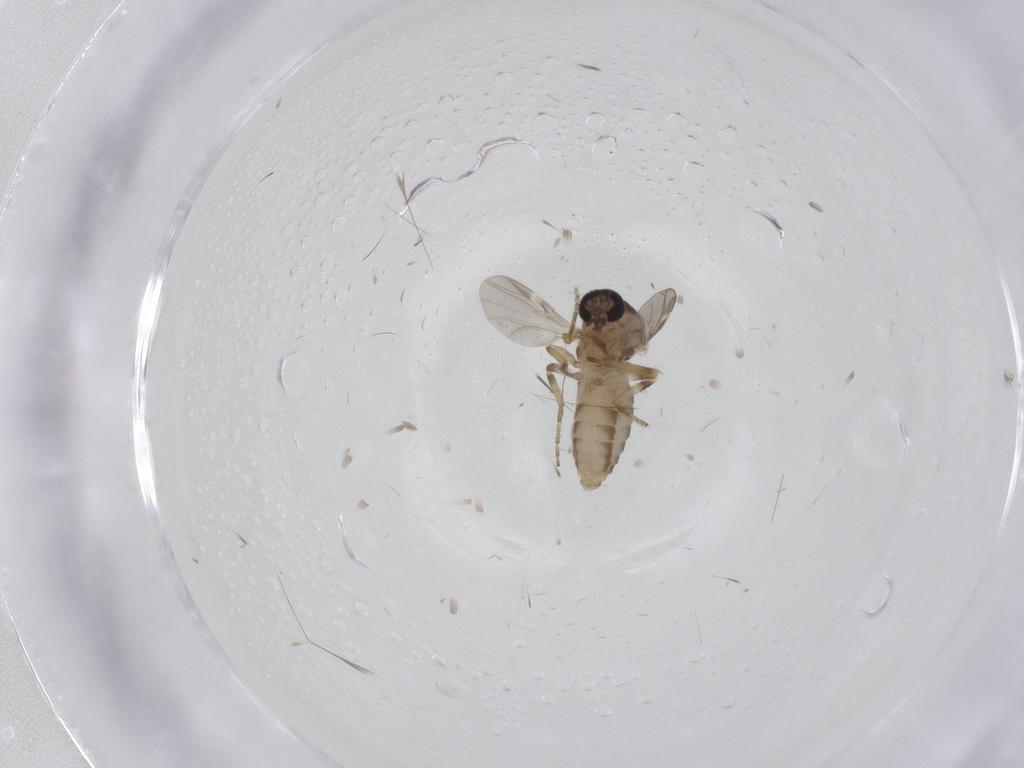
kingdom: Animalia
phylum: Arthropoda
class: Insecta
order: Diptera
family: Ceratopogonidae
